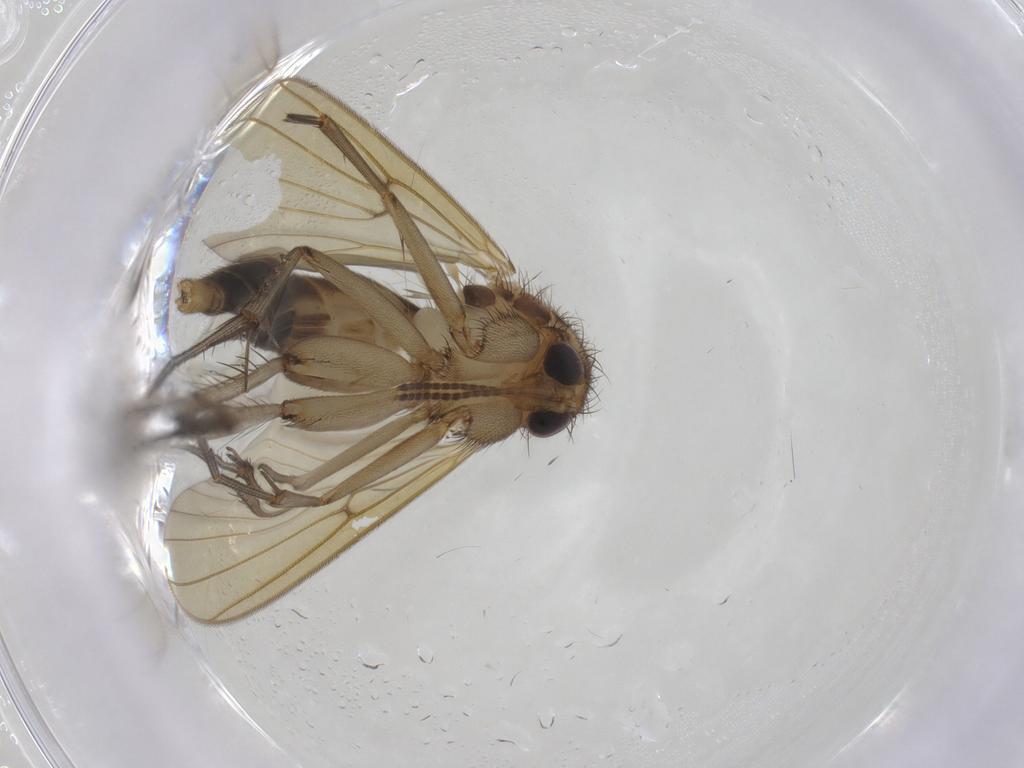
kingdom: Animalia
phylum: Arthropoda
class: Insecta
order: Diptera
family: Mycetophilidae
